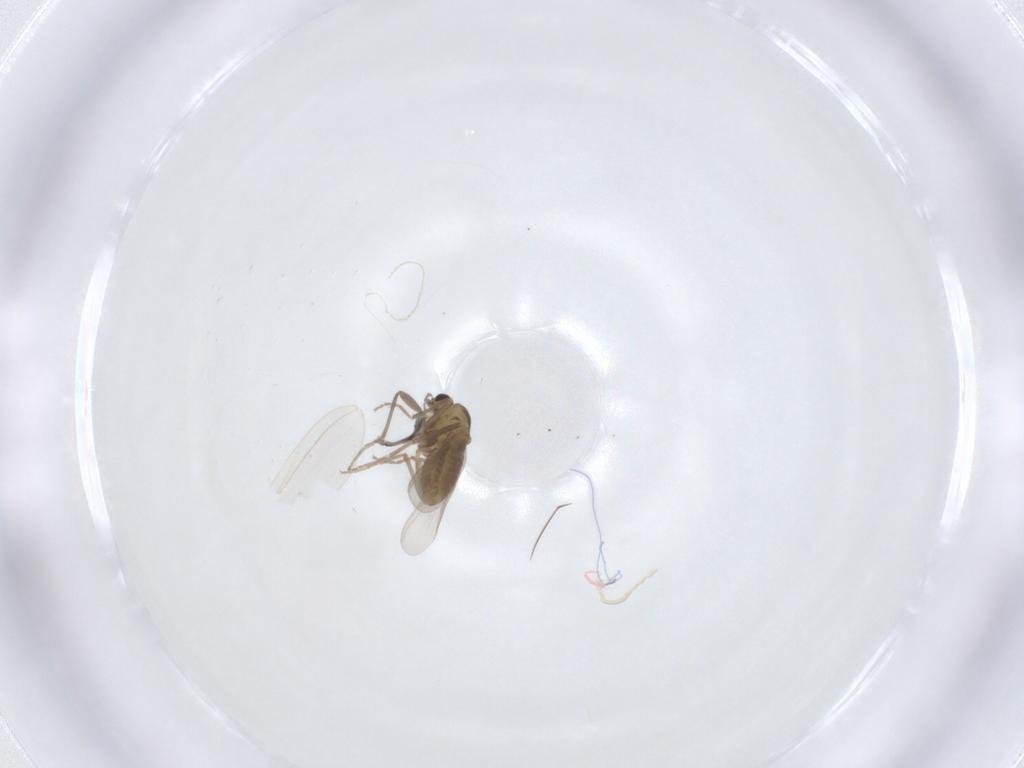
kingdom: Animalia
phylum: Arthropoda
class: Insecta
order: Diptera
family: Chironomidae
